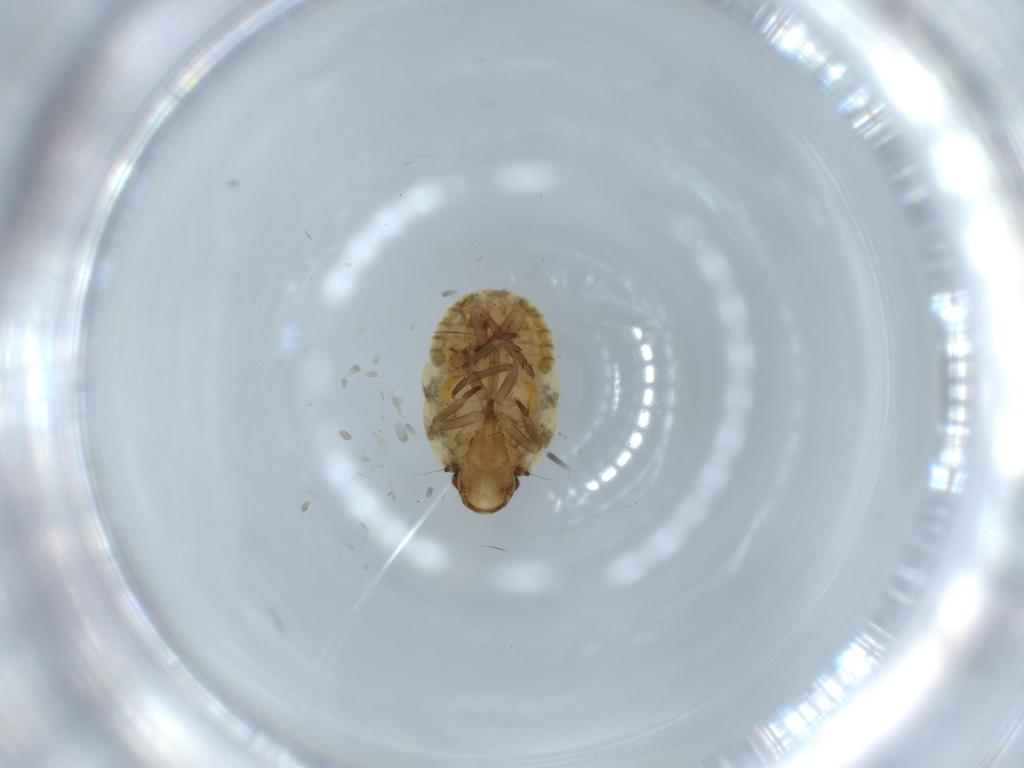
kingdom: Animalia
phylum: Arthropoda
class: Insecta
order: Hemiptera
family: Flatidae
